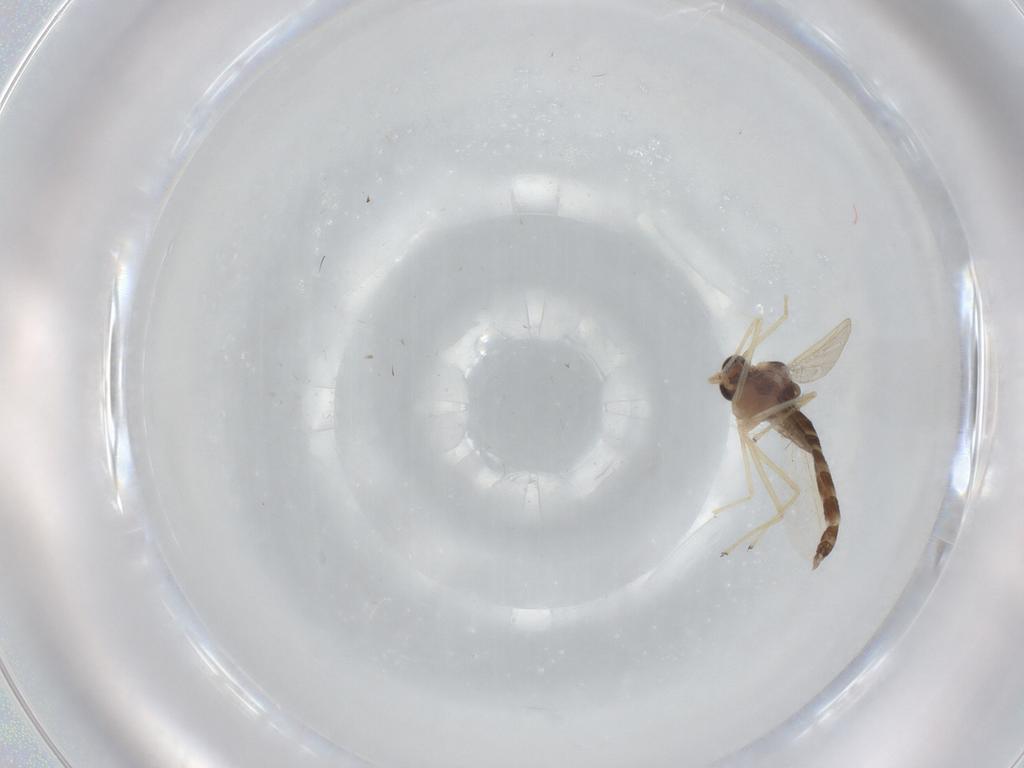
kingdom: Animalia
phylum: Arthropoda
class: Insecta
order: Diptera
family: Chironomidae
